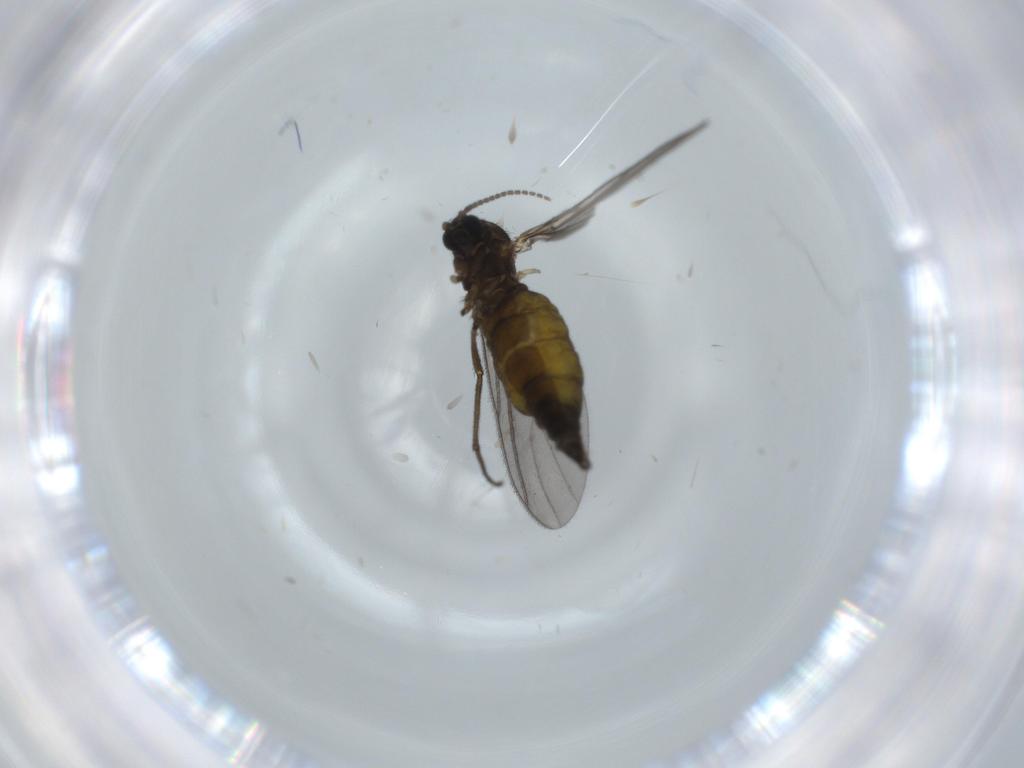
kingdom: Animalia
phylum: Arthropoda
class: Insecta
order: Diptera
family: Sciaridae
